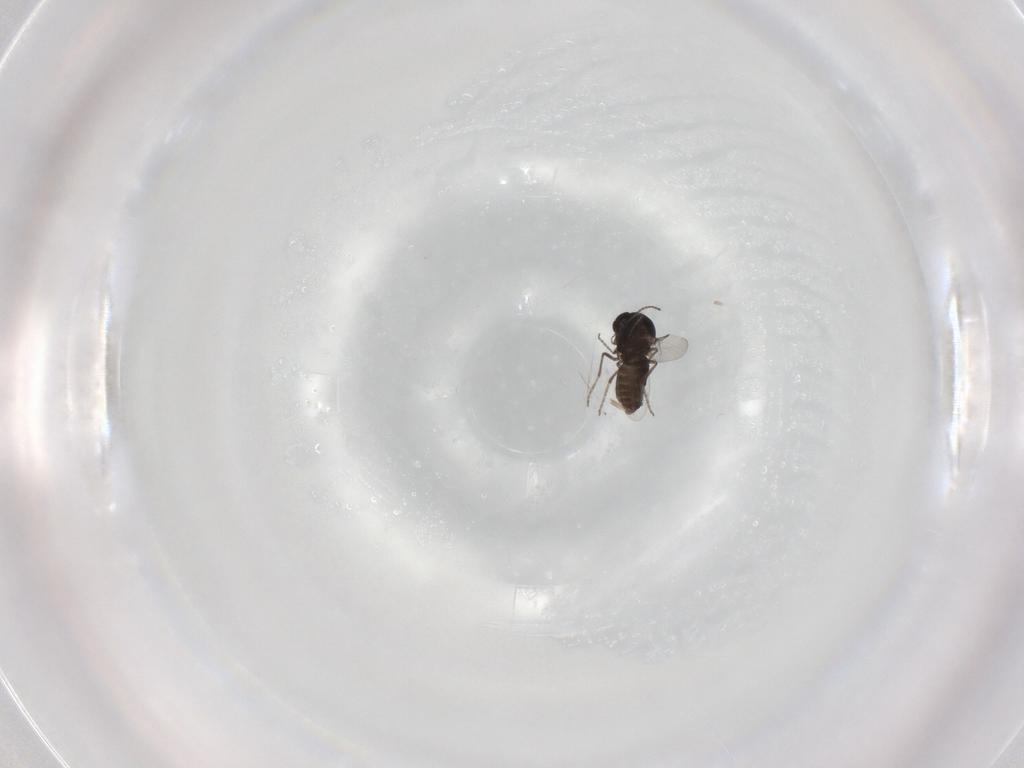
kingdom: Animalia
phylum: Arthropoda
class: Insecta
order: Diptera
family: Ceratopogonidae
